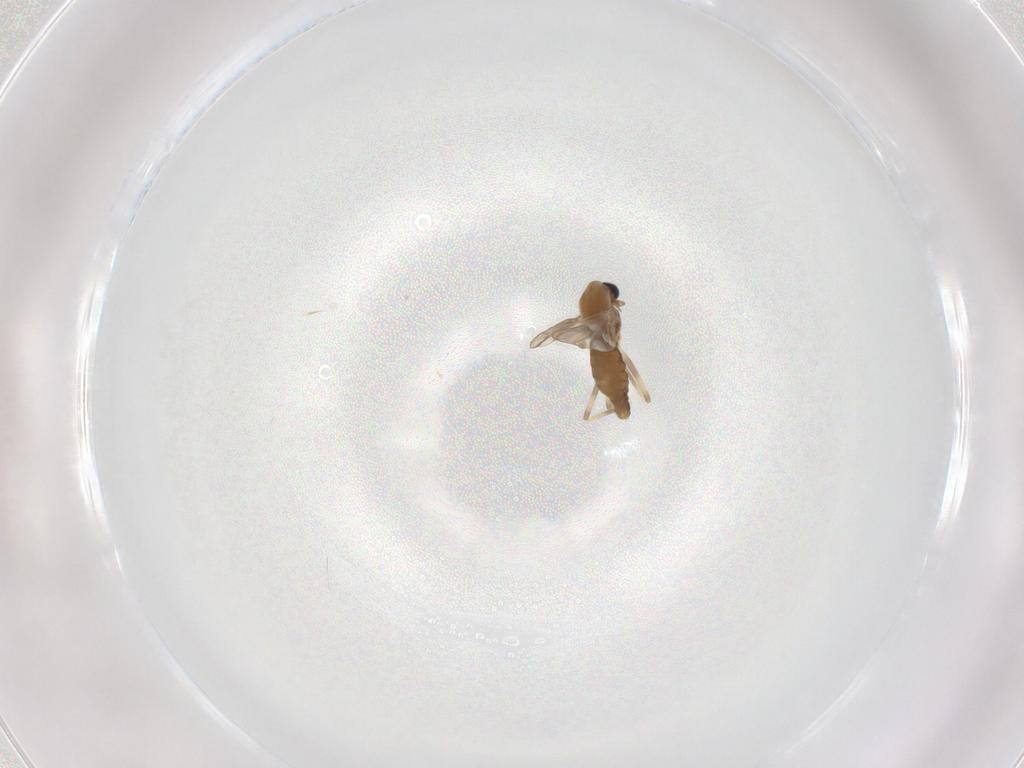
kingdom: Animalia
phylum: Arthropoda
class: Insecta
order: Diptera
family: Chironomidae
